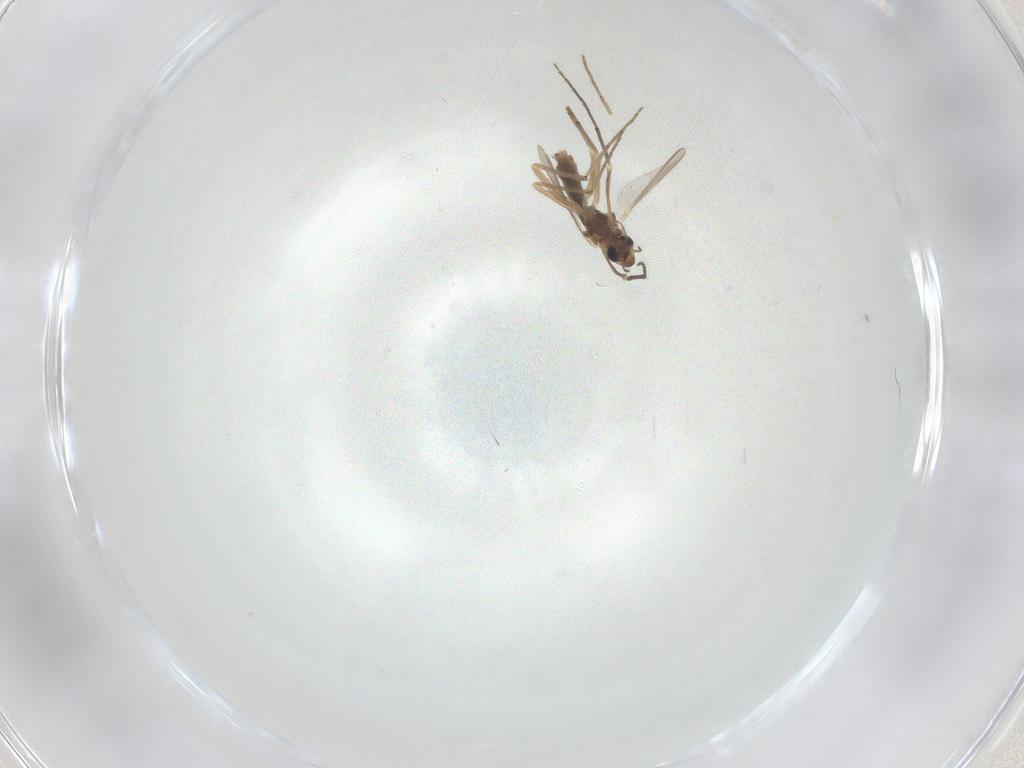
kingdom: Animalia
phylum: Arthropoda
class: Insecta
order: Diptera
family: Chironomidae
